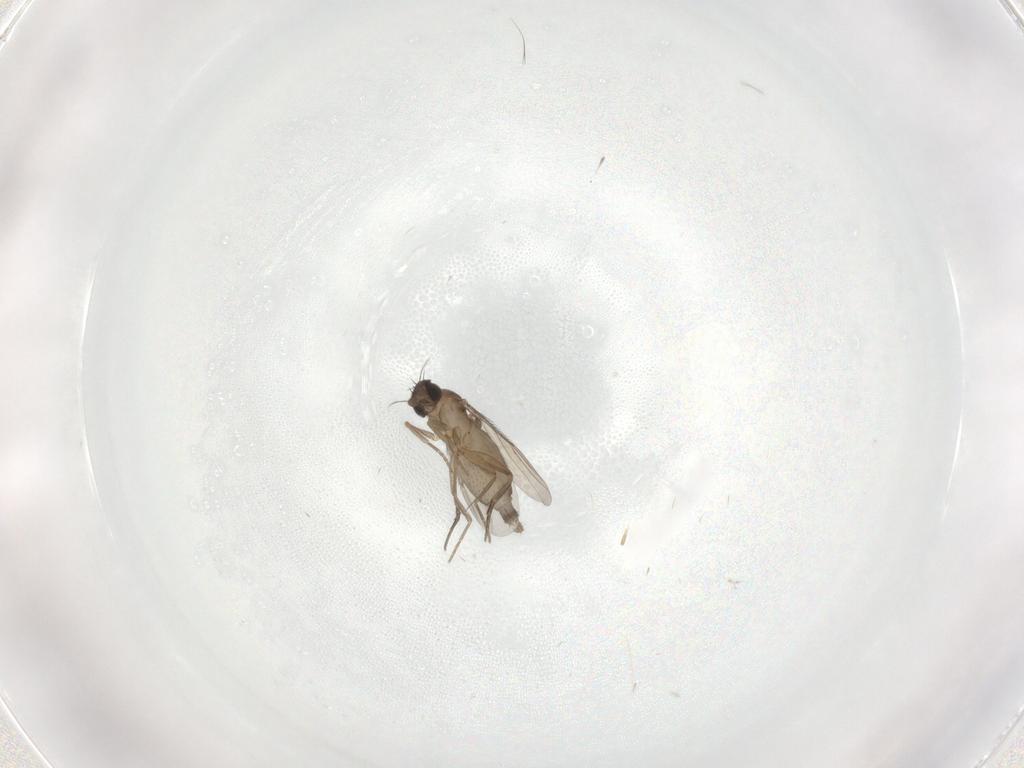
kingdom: Animalia
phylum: Arthropoda
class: Insecta
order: Diptera
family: Phoridae
